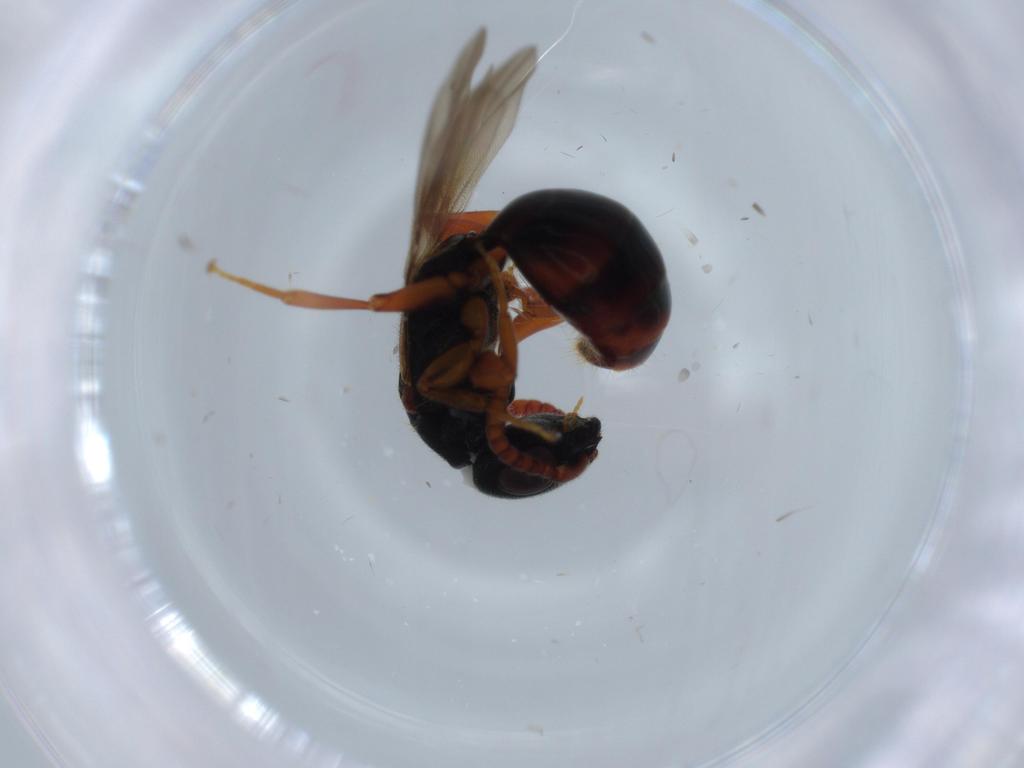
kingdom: Animalia
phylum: Arthropoda
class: Insecta
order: Hymenoptera
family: Bethylidae
